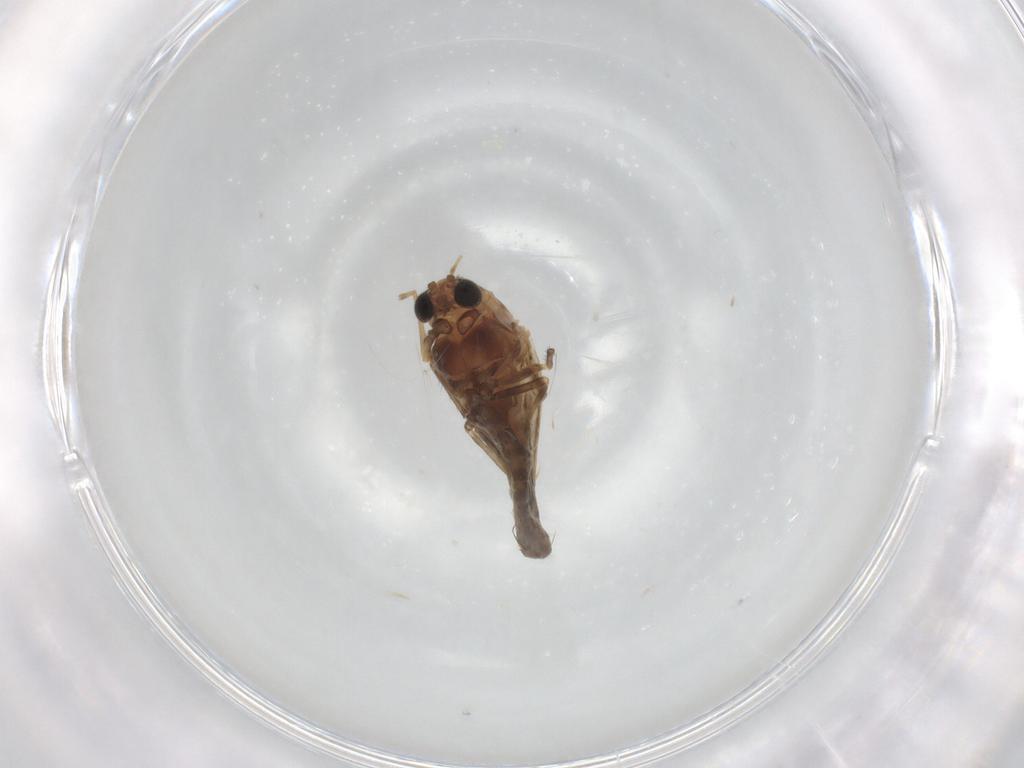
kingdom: Animalia
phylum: Arthropoda
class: Insecta
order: Diptera
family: Chironomidae
